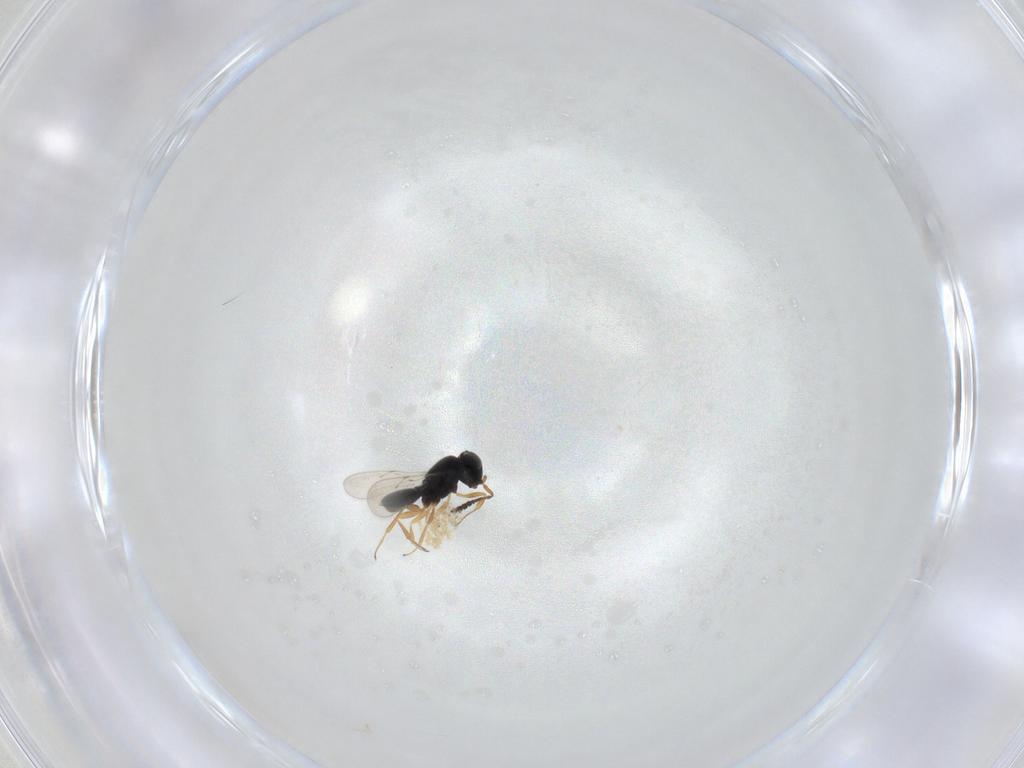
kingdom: Animalia
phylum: Arthropoda
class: Insecta
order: Hymenoptera
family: Scelionidae
